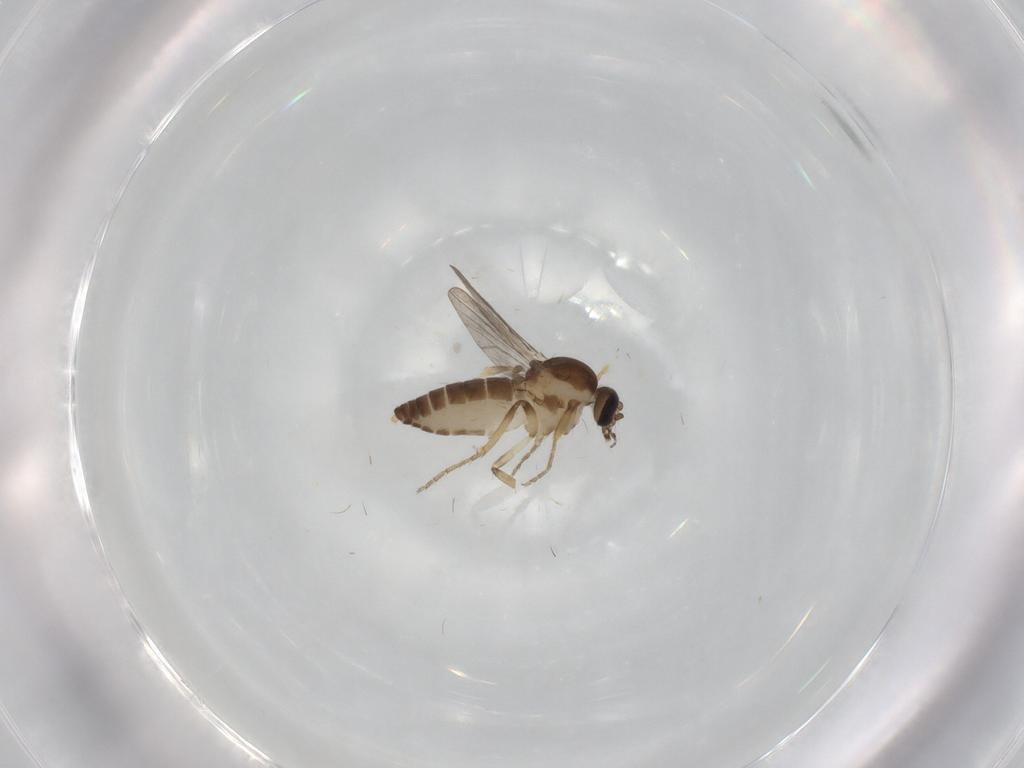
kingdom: Animalia
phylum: Arthropoda
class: Insecta
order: Diptera
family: Ceratopogonidae
